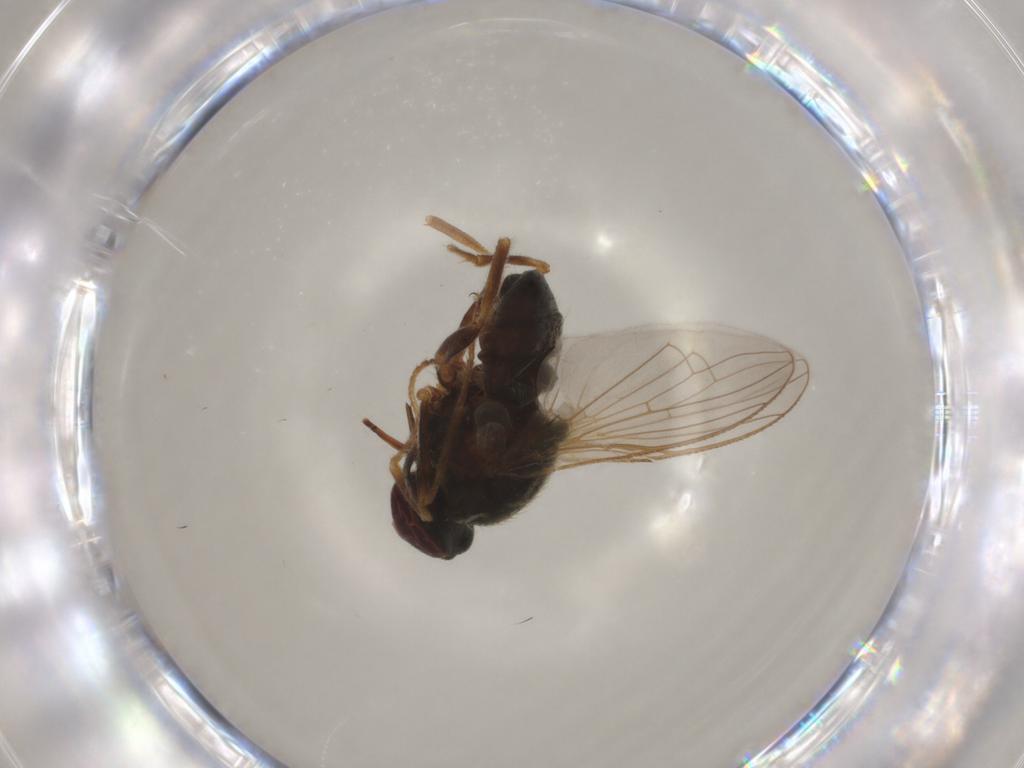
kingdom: Animalia
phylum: Arthropoda
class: Insecta
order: Diptera
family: Muscidae
